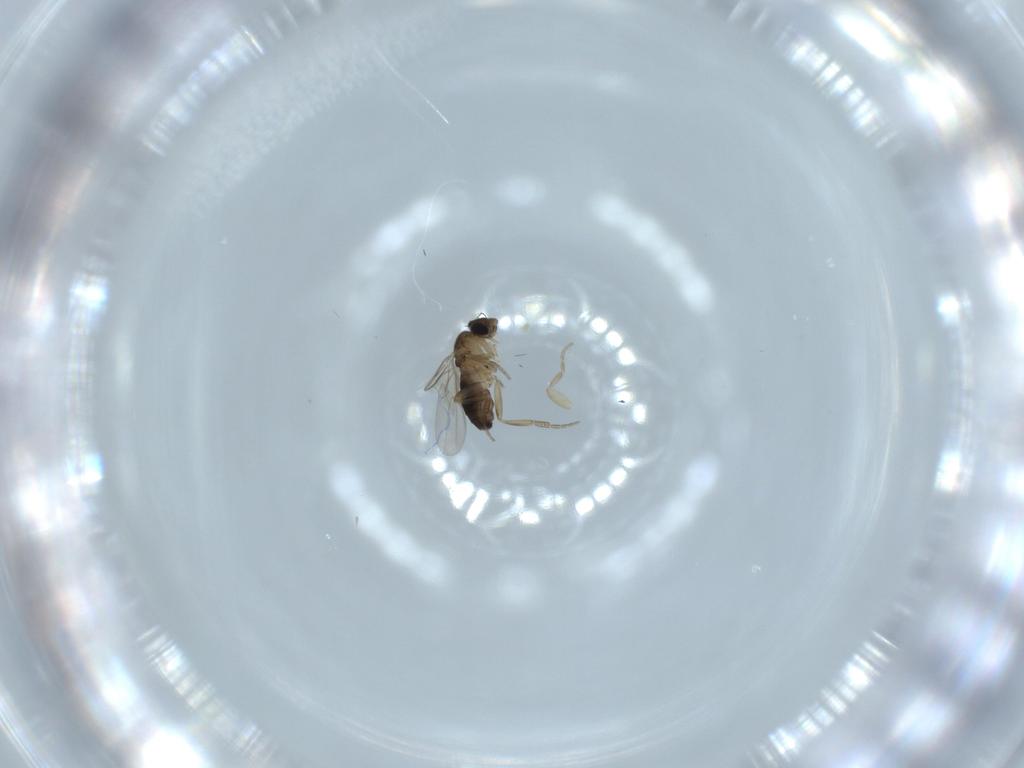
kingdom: Animalia
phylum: Arthropoda
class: Insecta
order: Diptera
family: Phoridae
